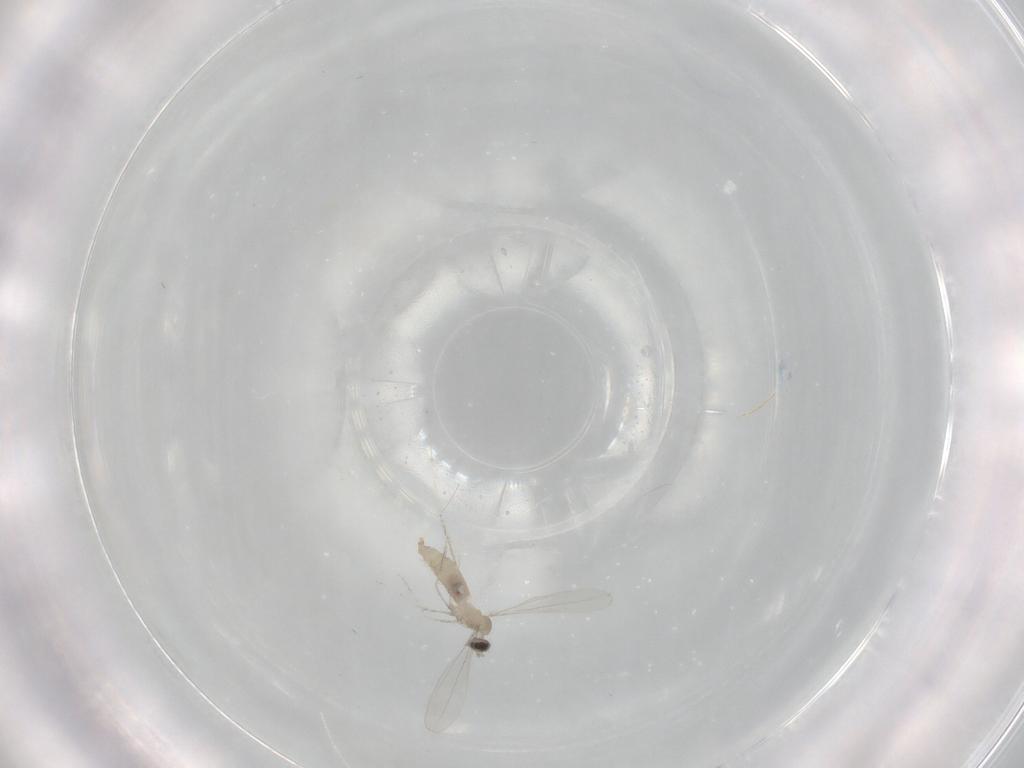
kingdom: Animalia
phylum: Arthropoda
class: Insecta
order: Diptera
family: Cecidomyiidae
